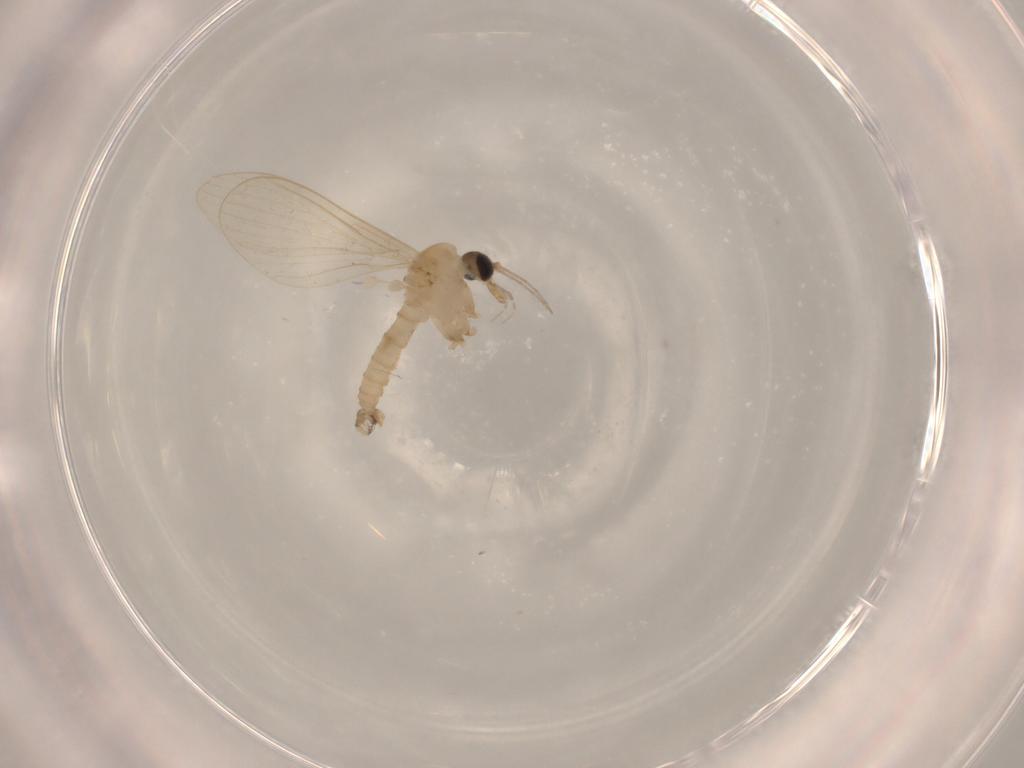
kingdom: Animalia
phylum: Arthropoda
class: Insecta
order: Diptera
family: Psychodidae
